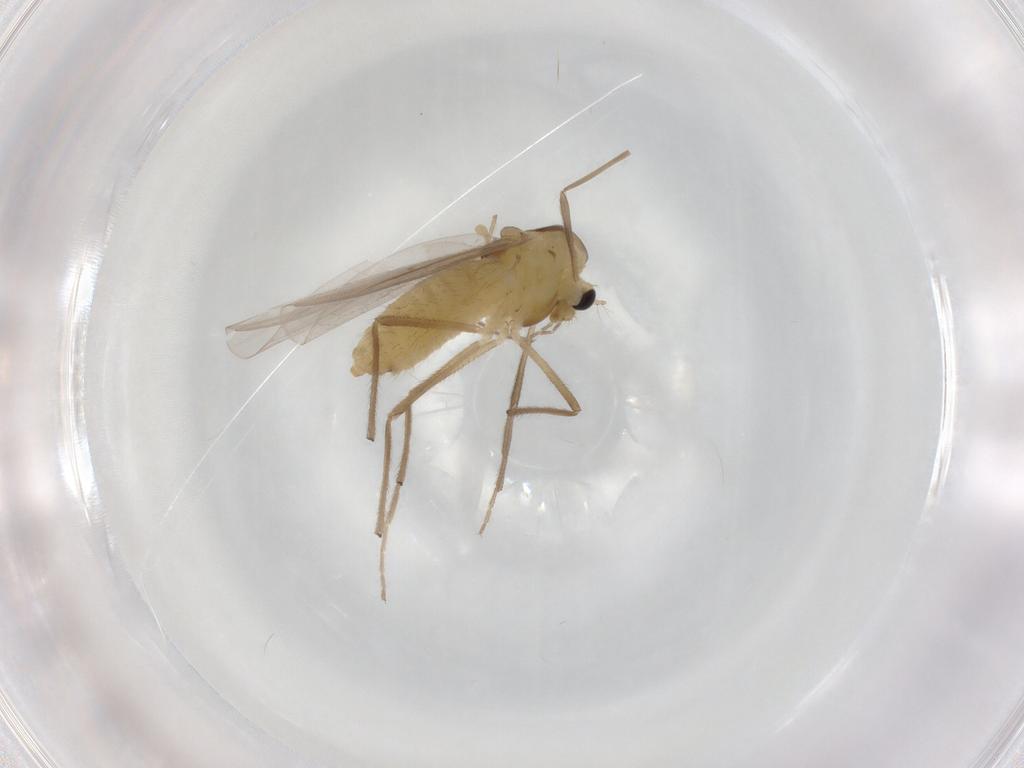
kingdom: Animalia
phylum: Arthropoda
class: Insecta
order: Diptera
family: Chironomidae
